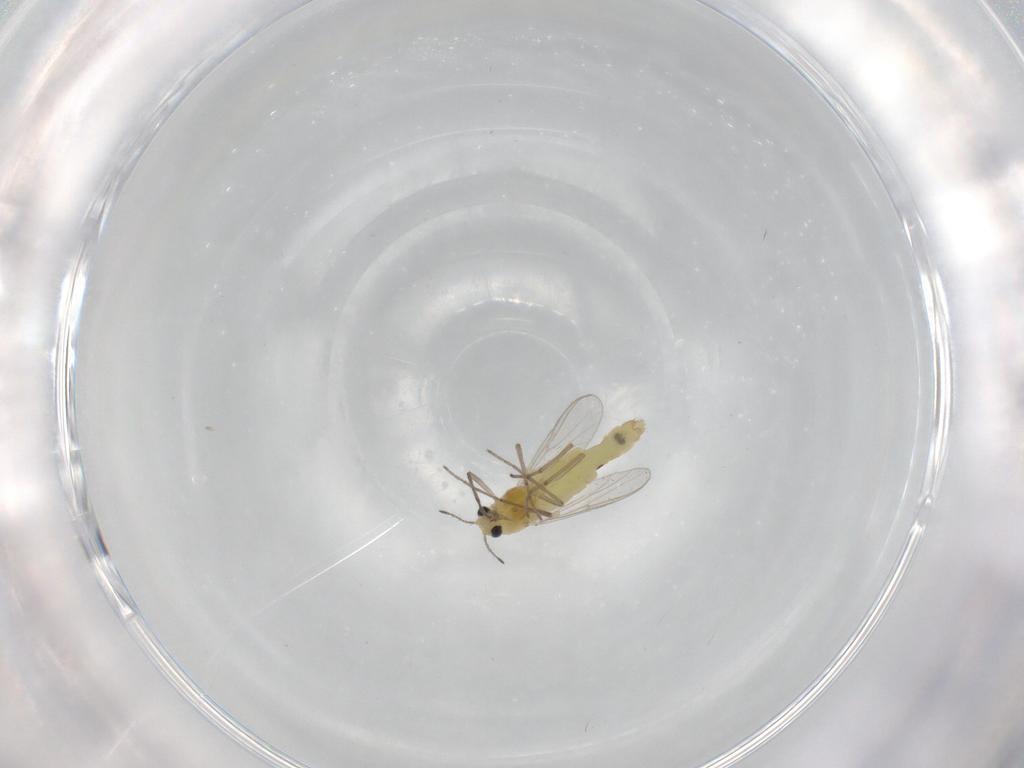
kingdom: Animalia
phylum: Arthropoda
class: Insecta
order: Diptera
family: Chironomidae
